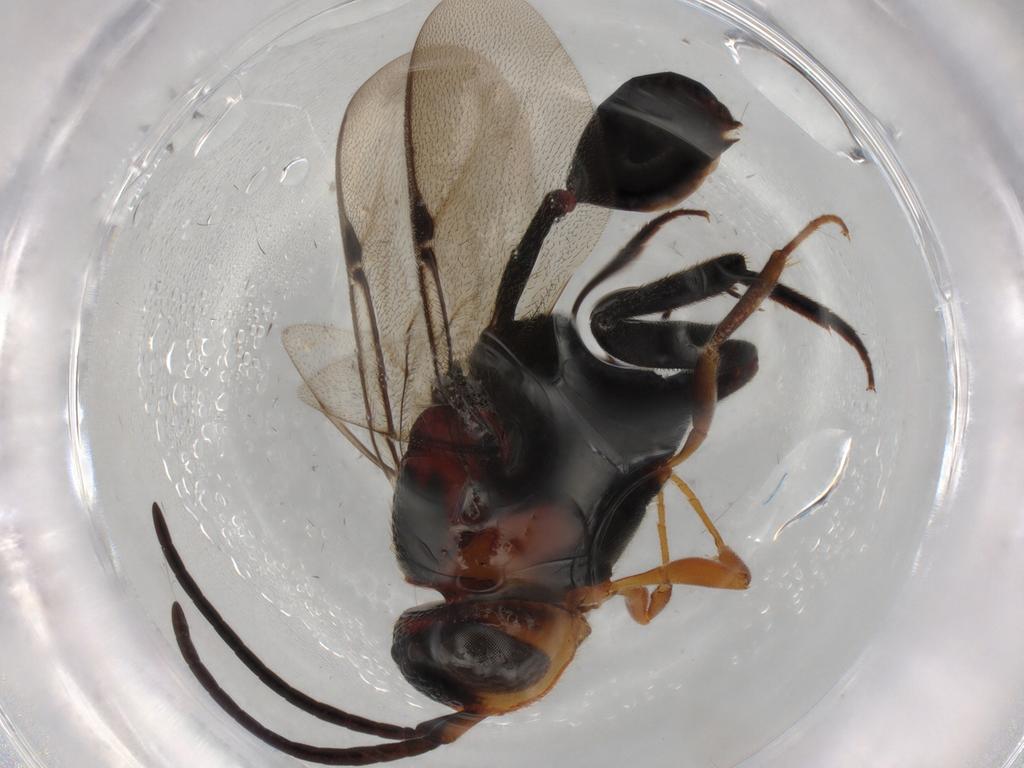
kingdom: Animalia
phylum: Arthropoda
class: Insecta
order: Hymenoptera
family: Evaniidae
